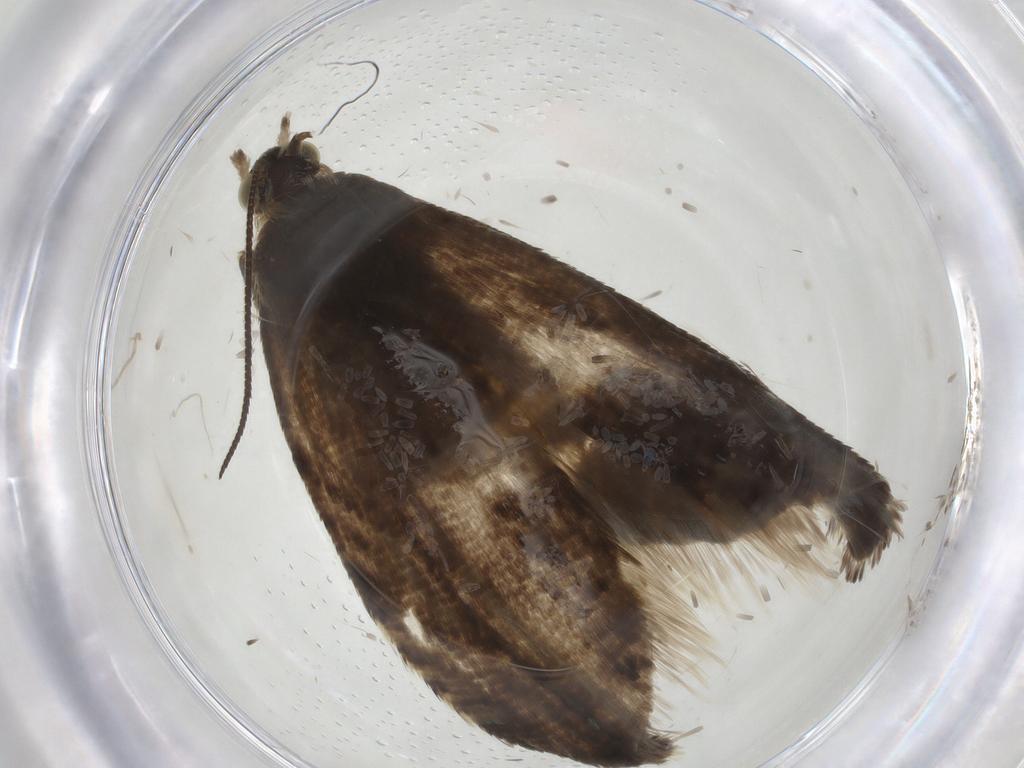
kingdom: Animalia
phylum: Arthropoda
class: Insecta
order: Lepidoptera
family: Tortricidae
